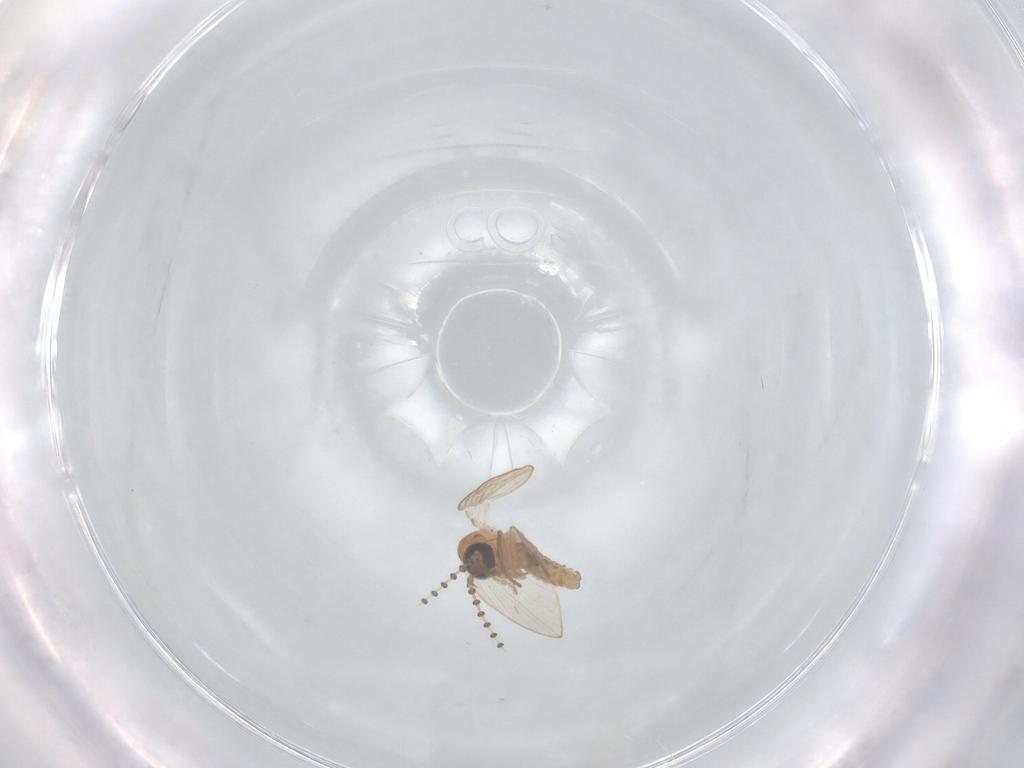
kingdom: Animalia
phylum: Arthropoda
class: Insecta
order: Diptera
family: Psychodidae
